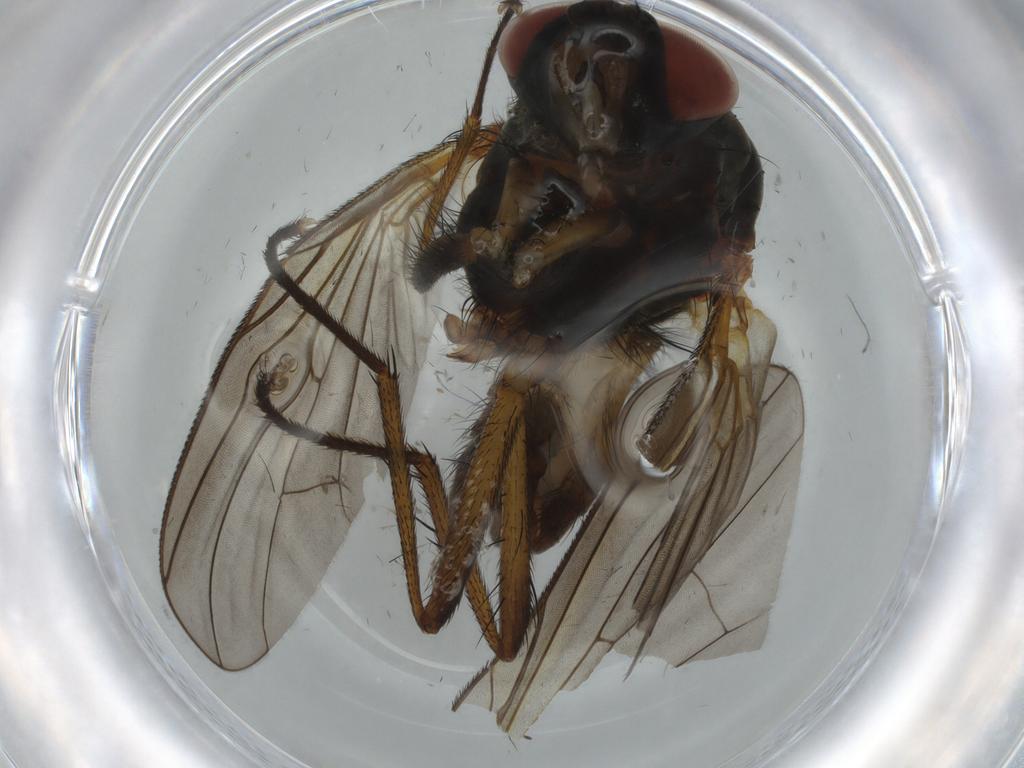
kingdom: Animalia
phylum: Arthropoda
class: Insecta
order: Diptera
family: Anthomyiidae
